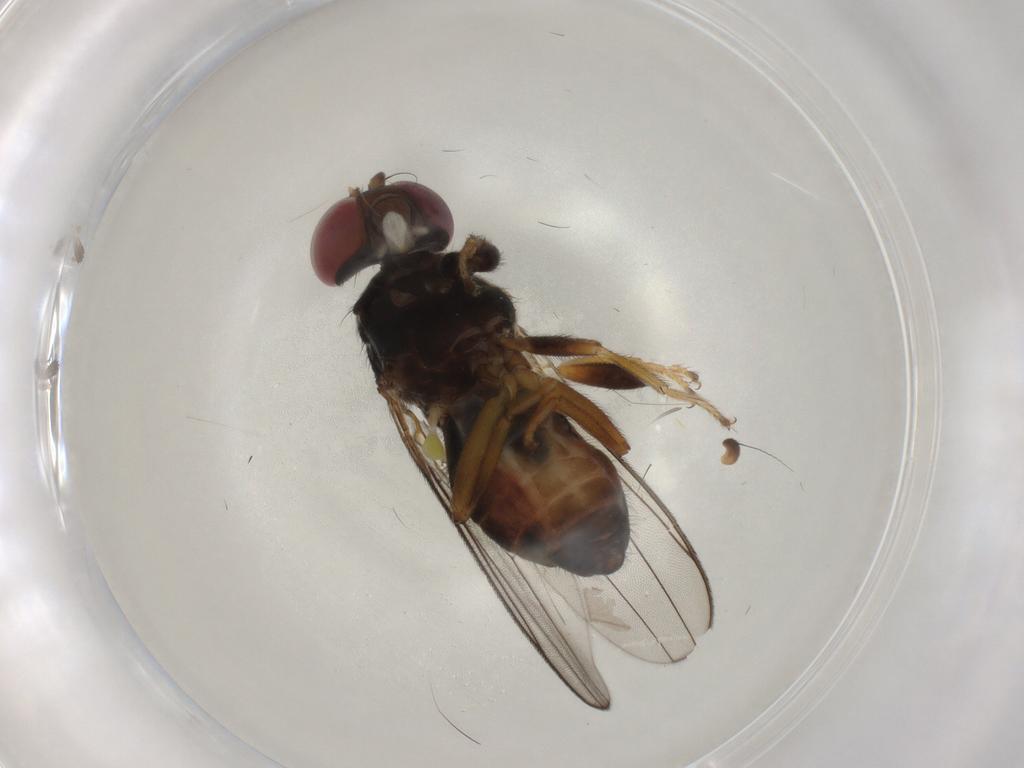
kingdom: Animalia
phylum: Arthropoda
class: Insecta
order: Diptera
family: Aulacigastridae
